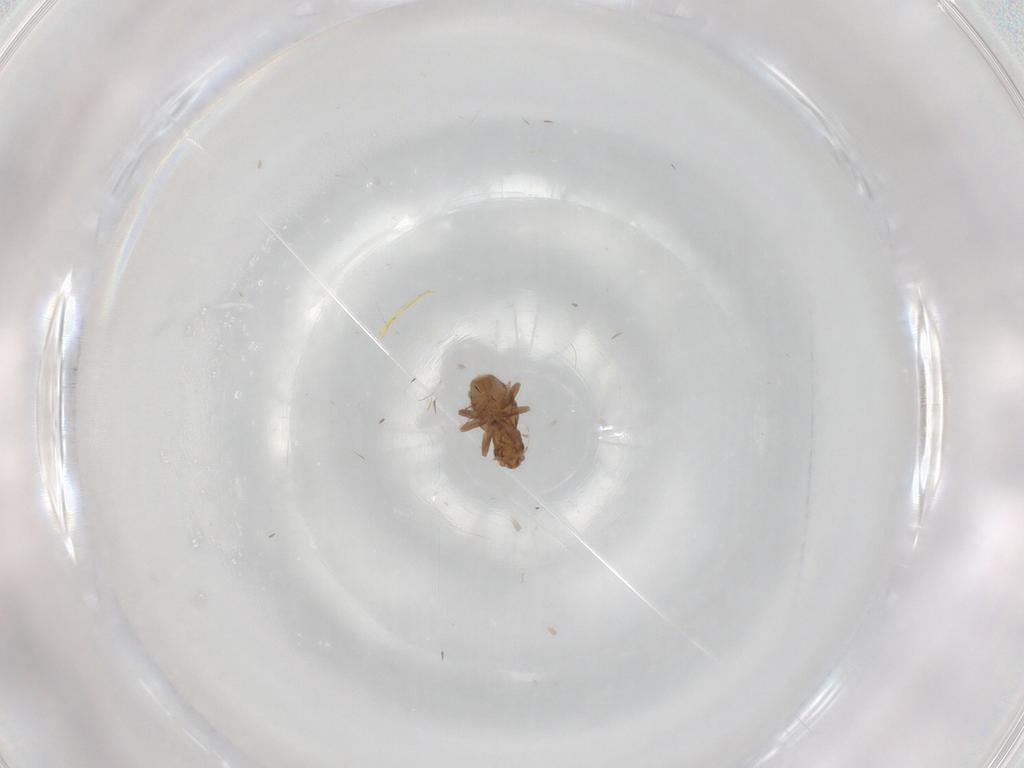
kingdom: Animalia
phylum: Arthropoda
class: Insecta
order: Diptera
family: Phoridae
